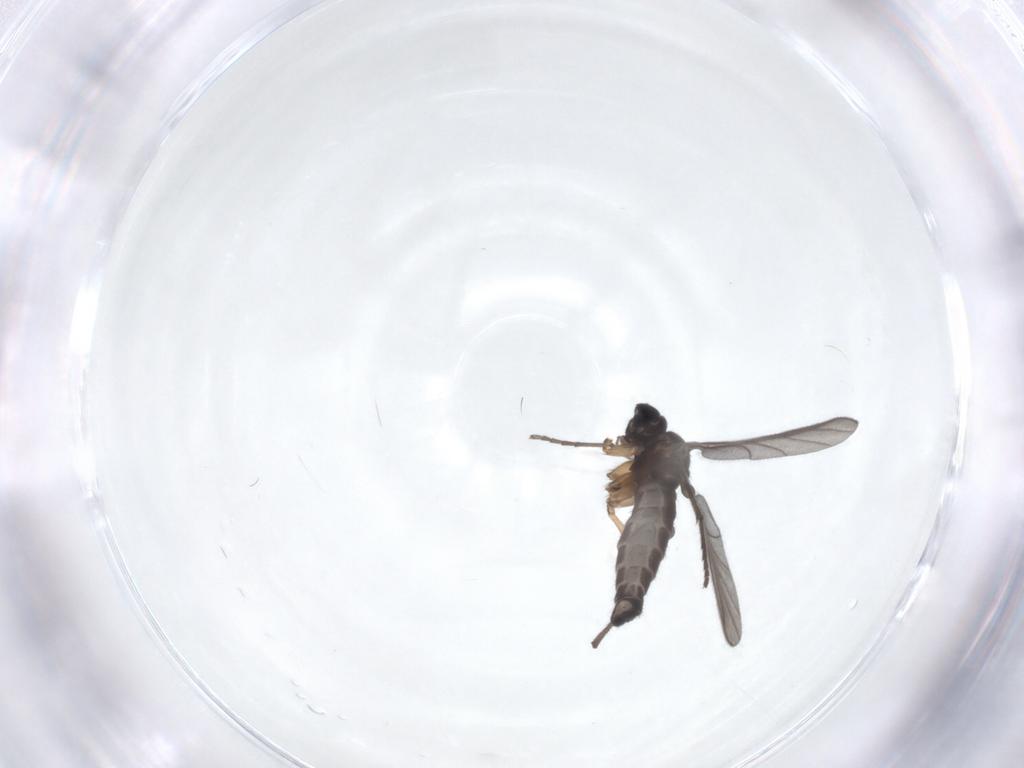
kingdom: Animalia
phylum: Arthropoda
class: Insecta
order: Diptera
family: Sciaridae
